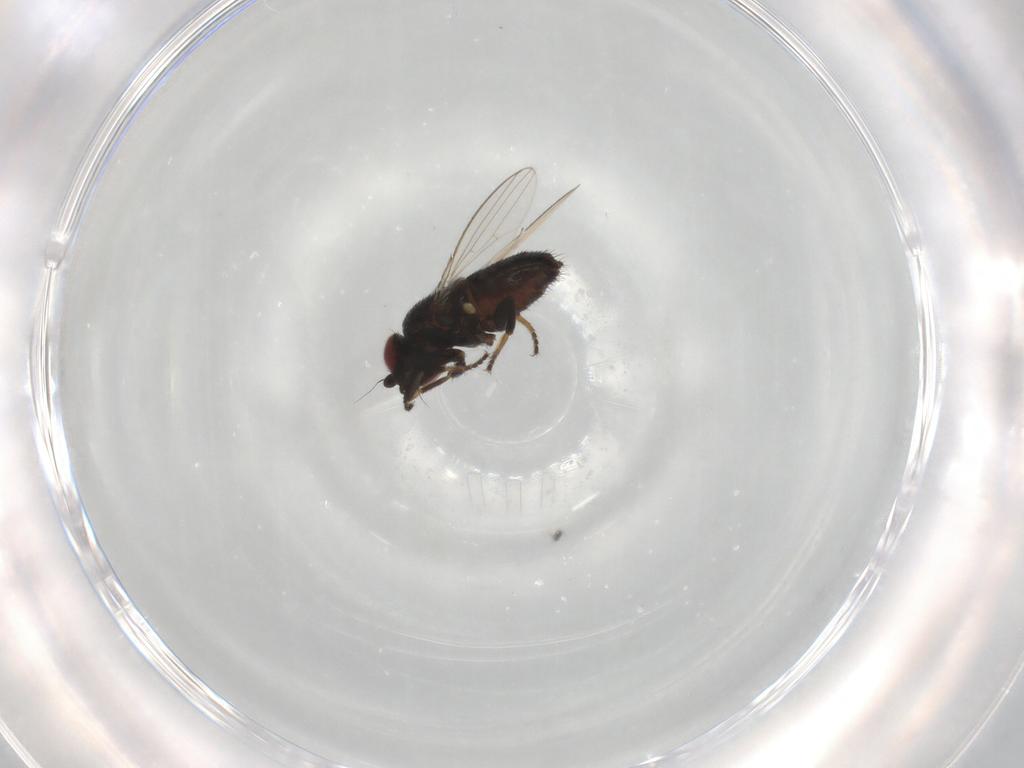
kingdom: Animalia
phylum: Arthropoda
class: Insecta
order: Diptera
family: Milichiidae
